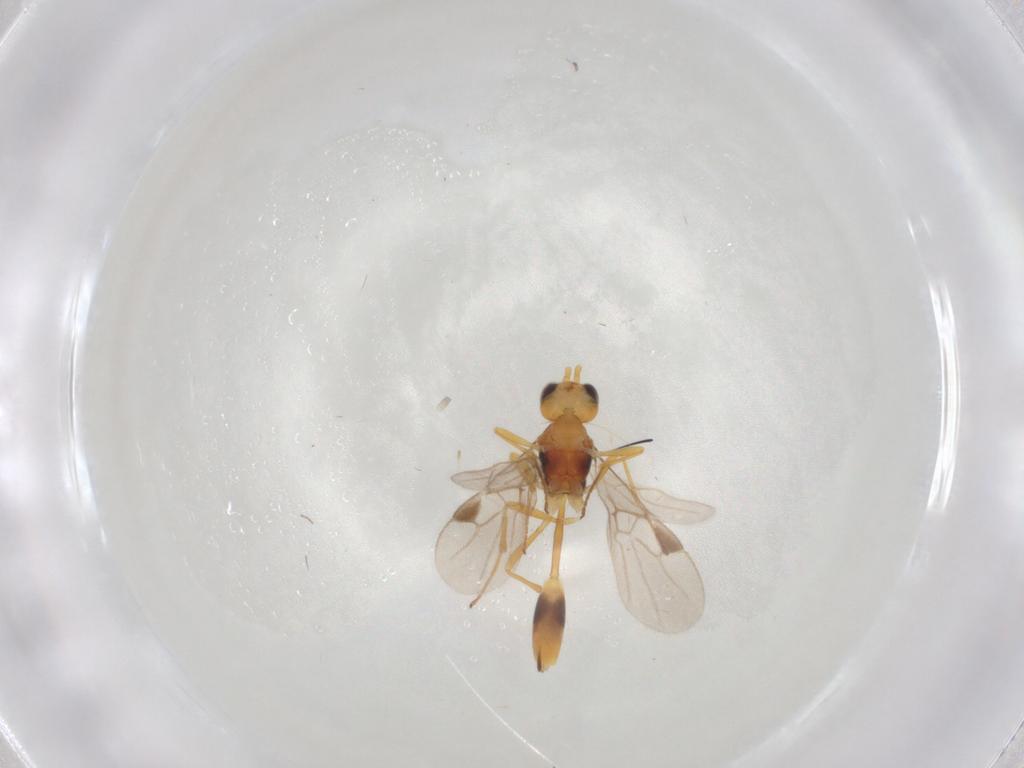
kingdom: Animalia
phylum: Arthropoda
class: Insecta
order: Hymenoptera
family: Braconidae
